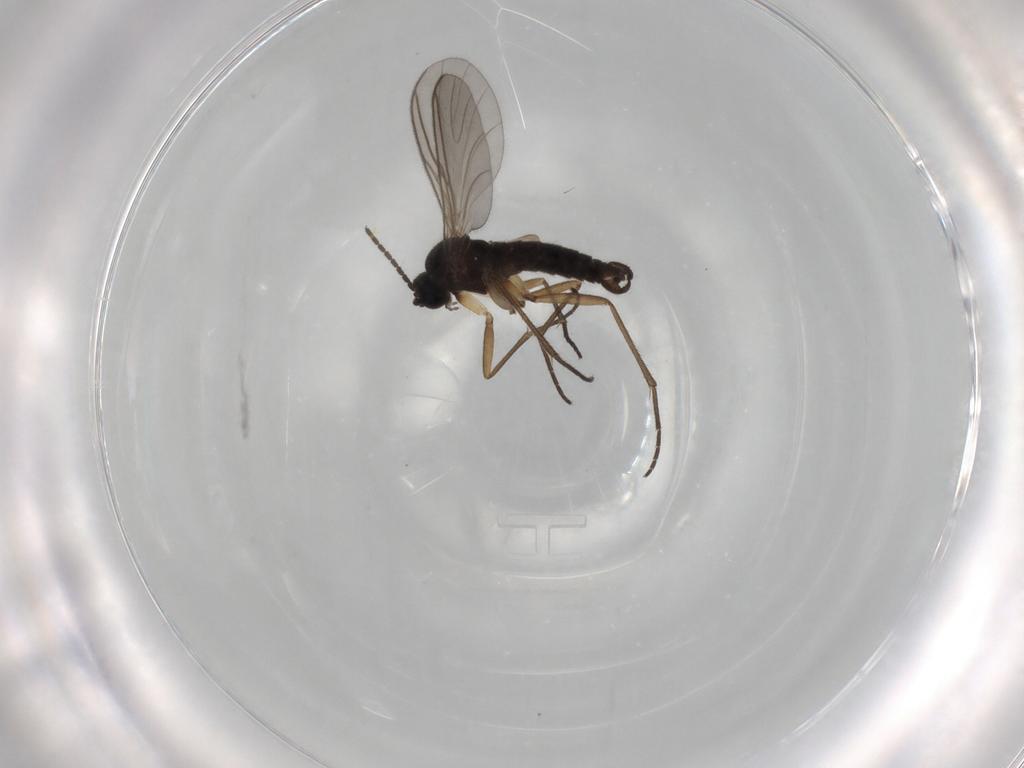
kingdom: Animalia
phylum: Arthropoda
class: Insecta
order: Diptera
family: Sciaridae
